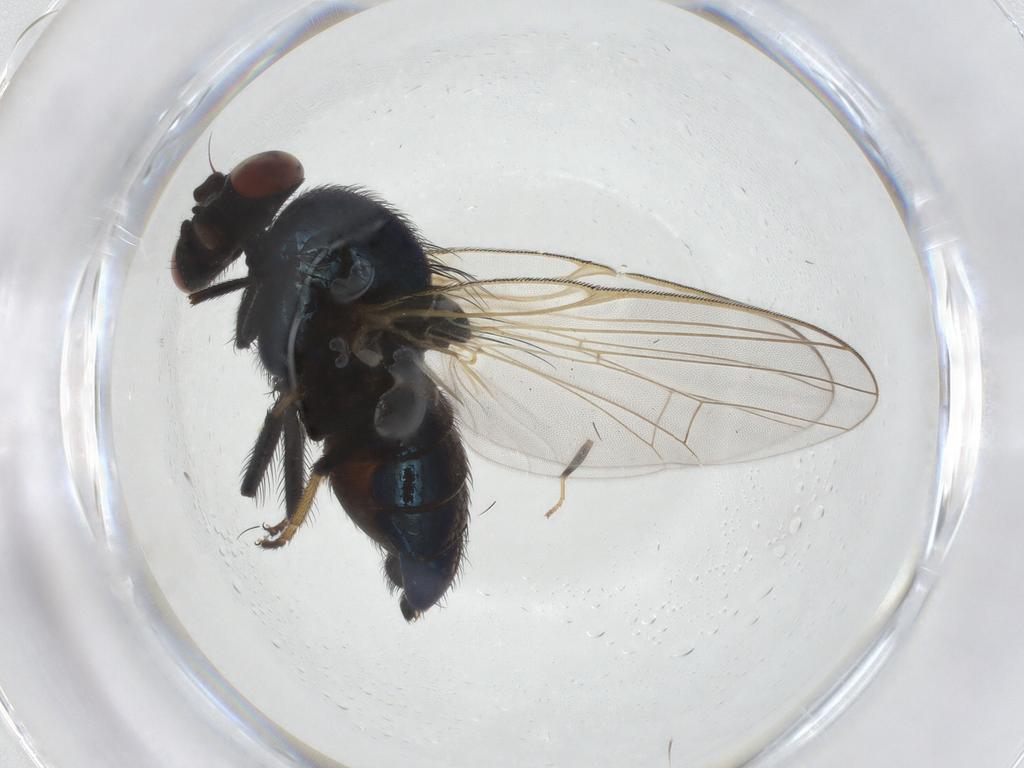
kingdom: Animalia
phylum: Arthropoda
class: Insecta
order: Diptera
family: Lonchaeidae
